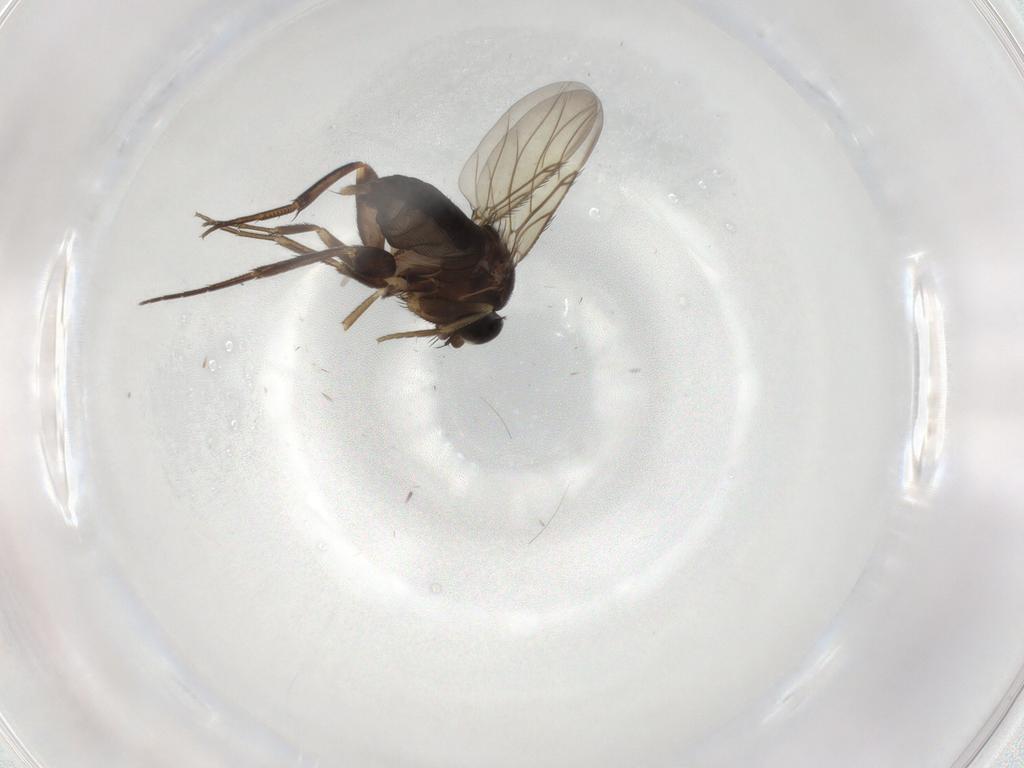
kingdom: Animalia
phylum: Arthropoda
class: Insecta
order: Diptera
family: Phoridae
